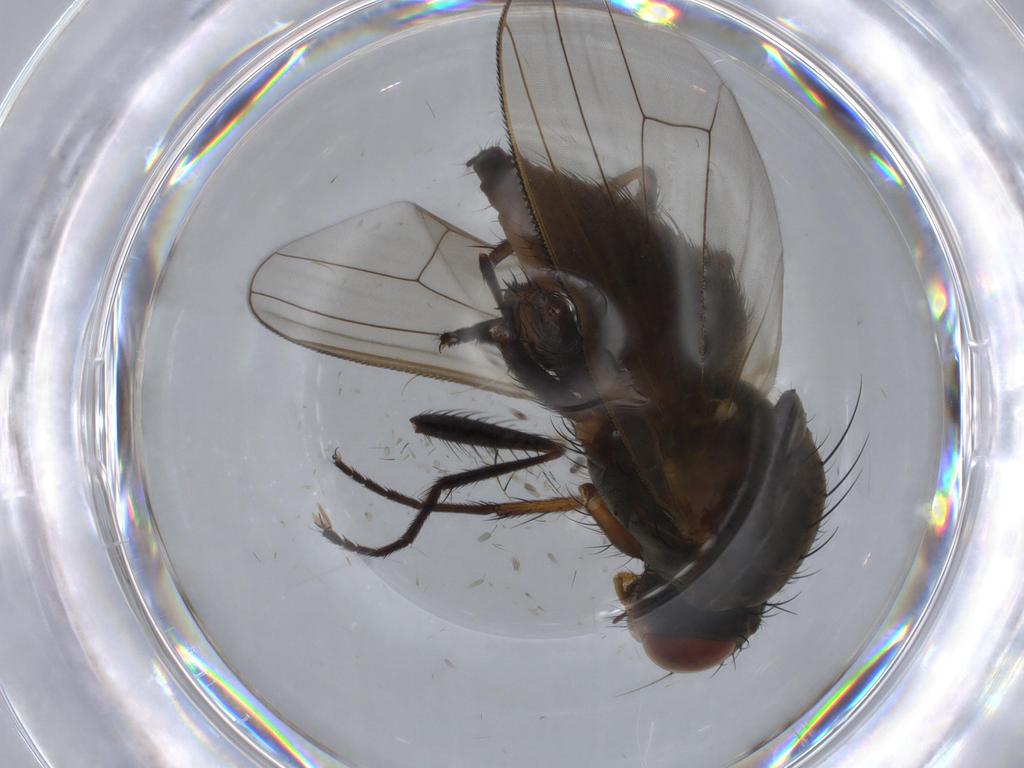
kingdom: Animalia
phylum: Arthropoda
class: Insecta
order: Diptera
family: Anthomyiidae
